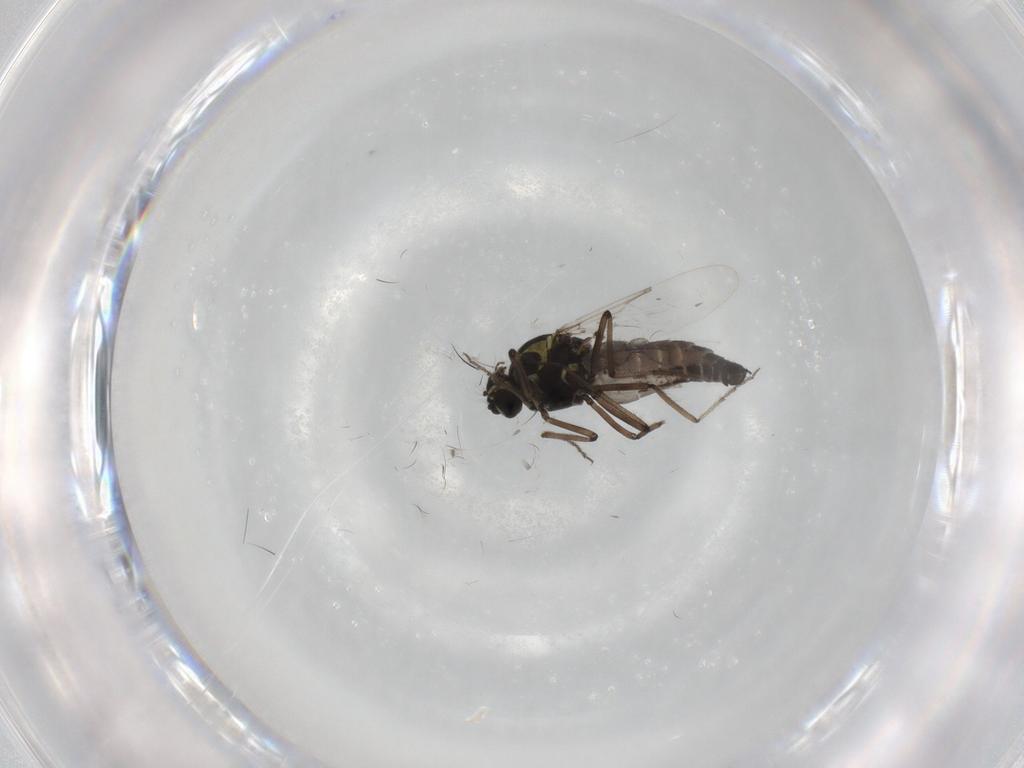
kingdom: Animalia
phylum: Arthropoda
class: Insecta
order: Diptera
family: Ceratopogonidae
